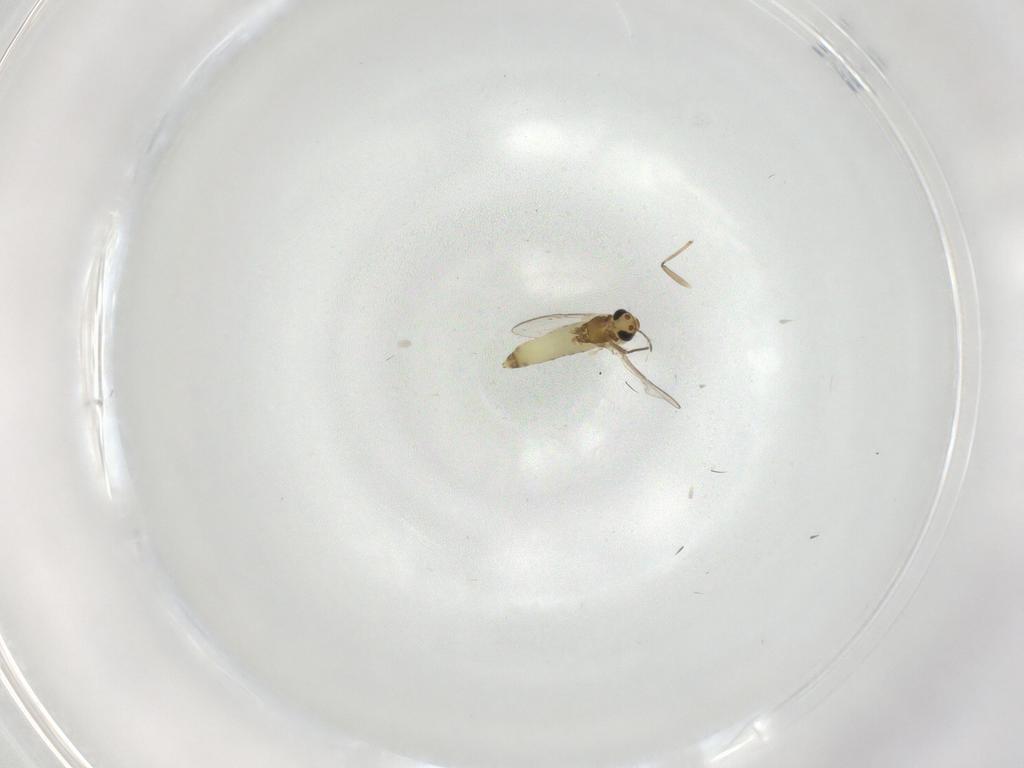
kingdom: Animalia
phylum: Arthropoda
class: Insecta
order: Diptera
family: Chironomidae
